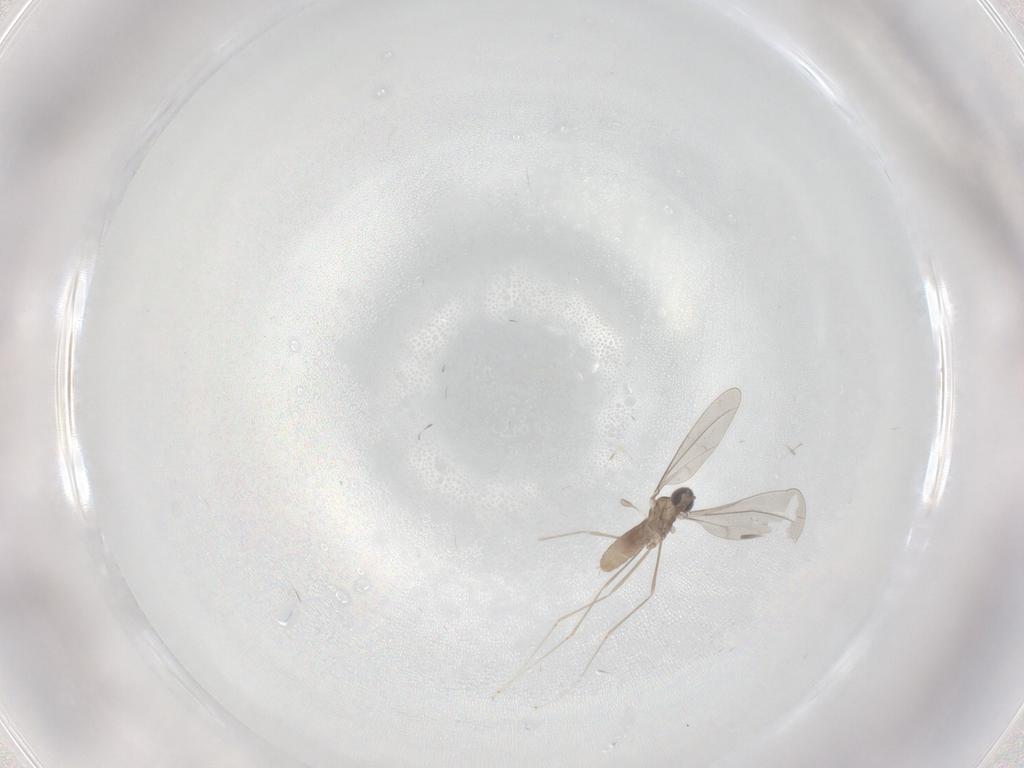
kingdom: Animalia
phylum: Arthropoda
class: Insecta
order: Diptera
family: Cecidomyiidae
